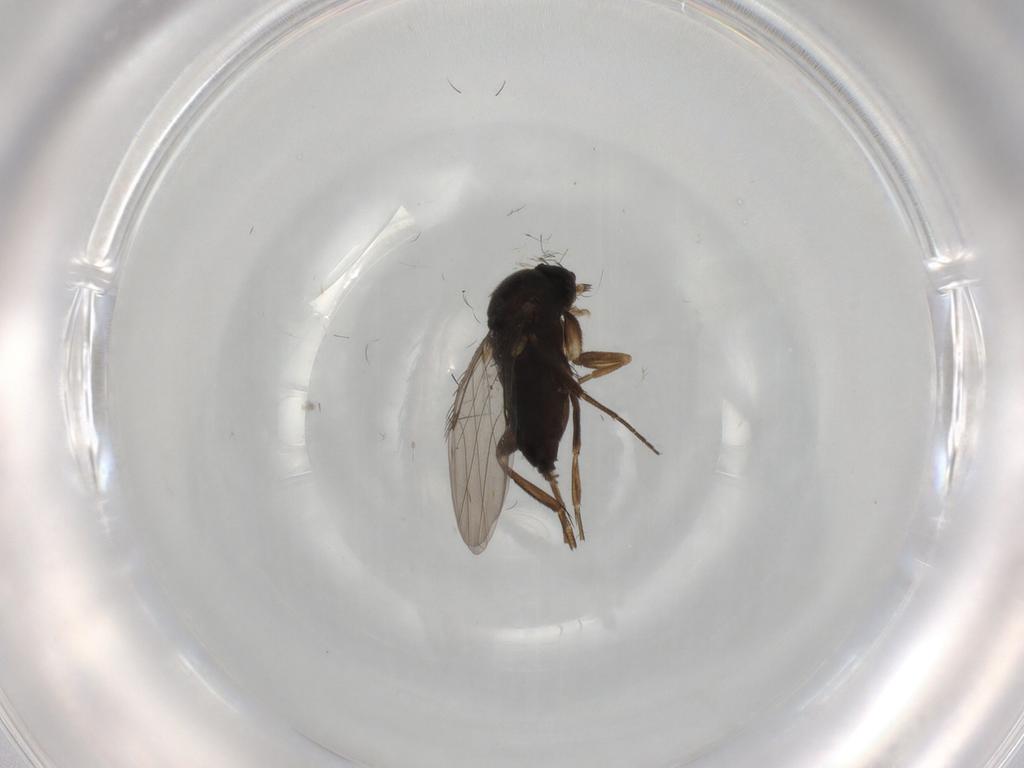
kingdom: Animalia
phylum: Arthropoda
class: Insecta
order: Diptera
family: Phoridae
